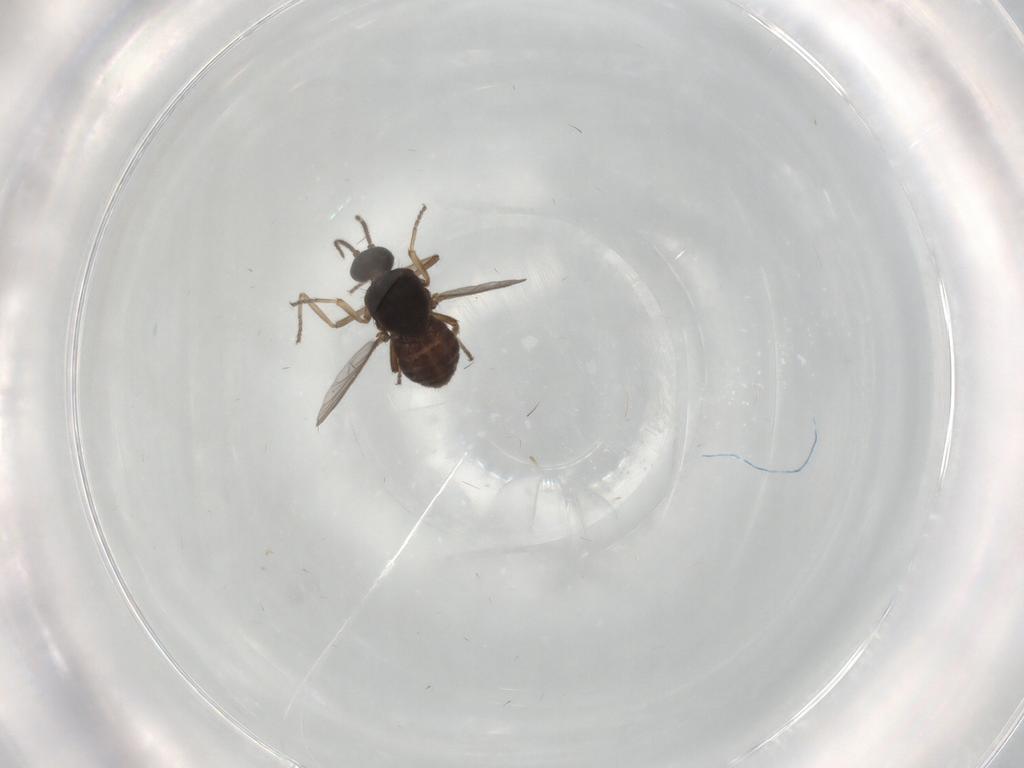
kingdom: Animalia
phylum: Arthropoda
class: Insecta
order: Diptera
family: Ceratopogonidae
